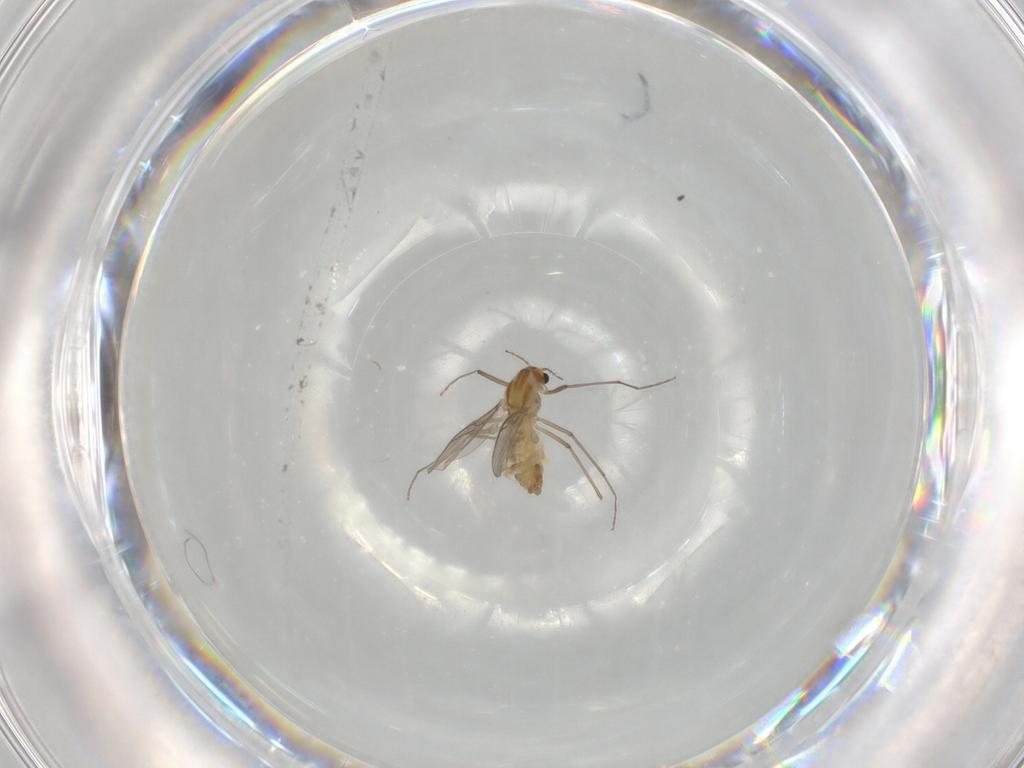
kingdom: Animalia
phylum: Arthropoda
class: Insecta
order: Diptera
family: Chironomidae
